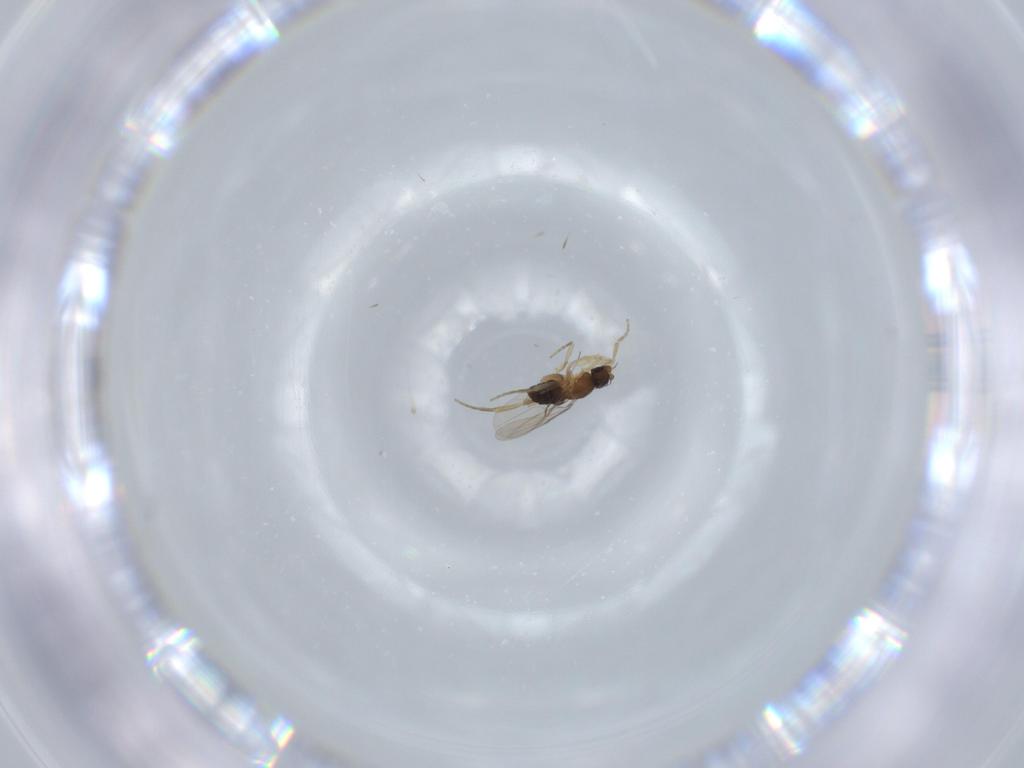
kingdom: Animalia
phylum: Arthropoda
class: Insecta
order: Diptera
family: Phoridae
